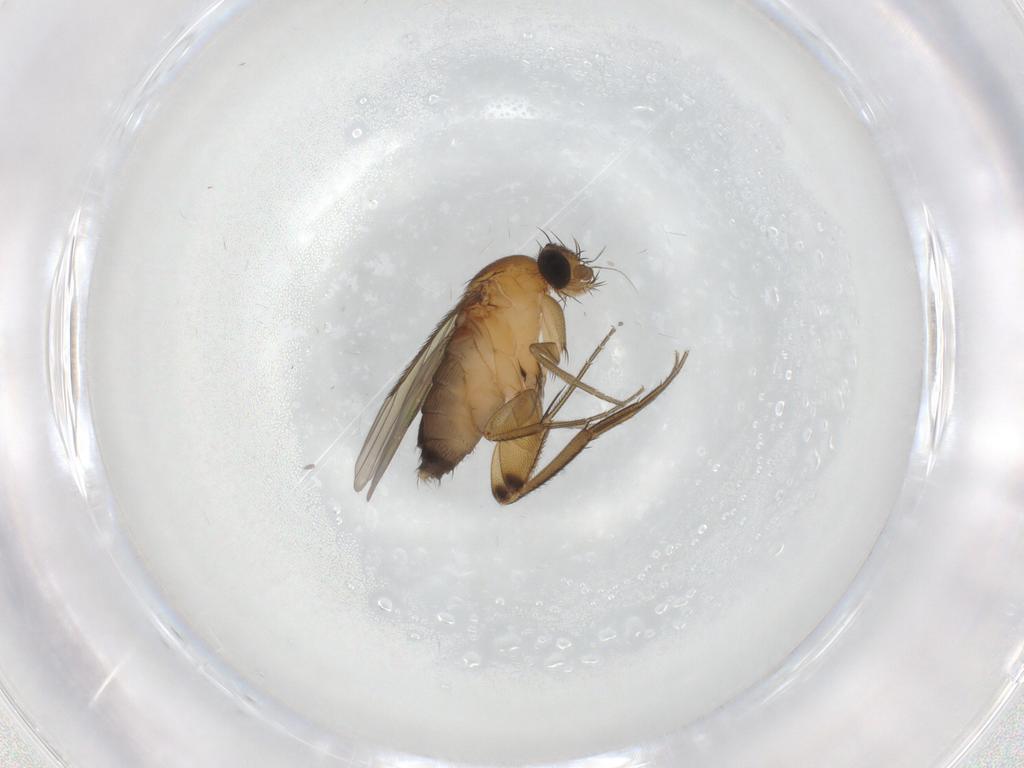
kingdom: Animalia
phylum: Arthropoda
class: Insecta
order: Diptera
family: Phoridae
